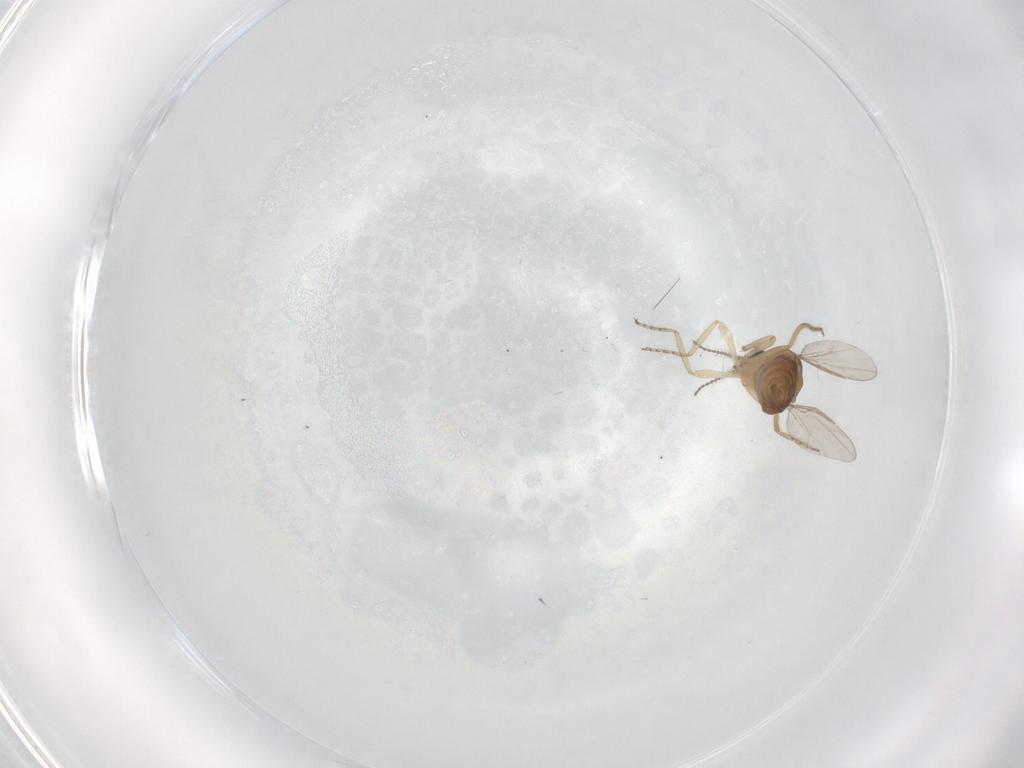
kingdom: Animalia
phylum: Arthropoda
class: Insecta
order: Diptera
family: Ceratopogonidae
